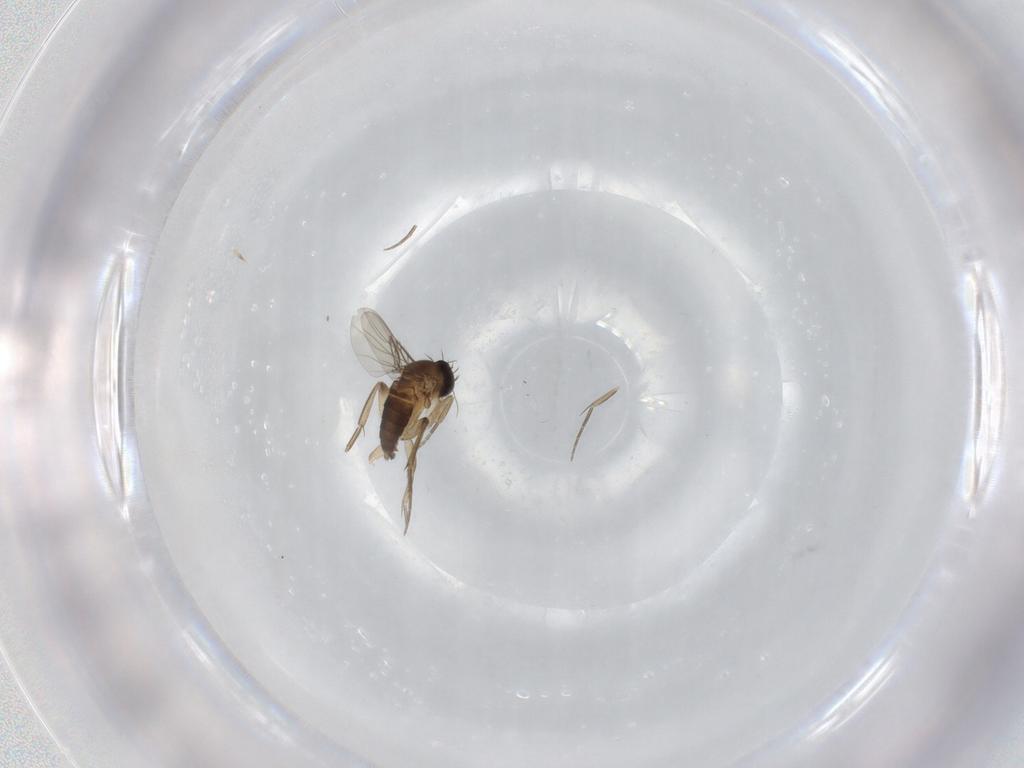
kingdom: Animalia
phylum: Arthropoda
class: Insecta
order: Diptera
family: Phoridae
